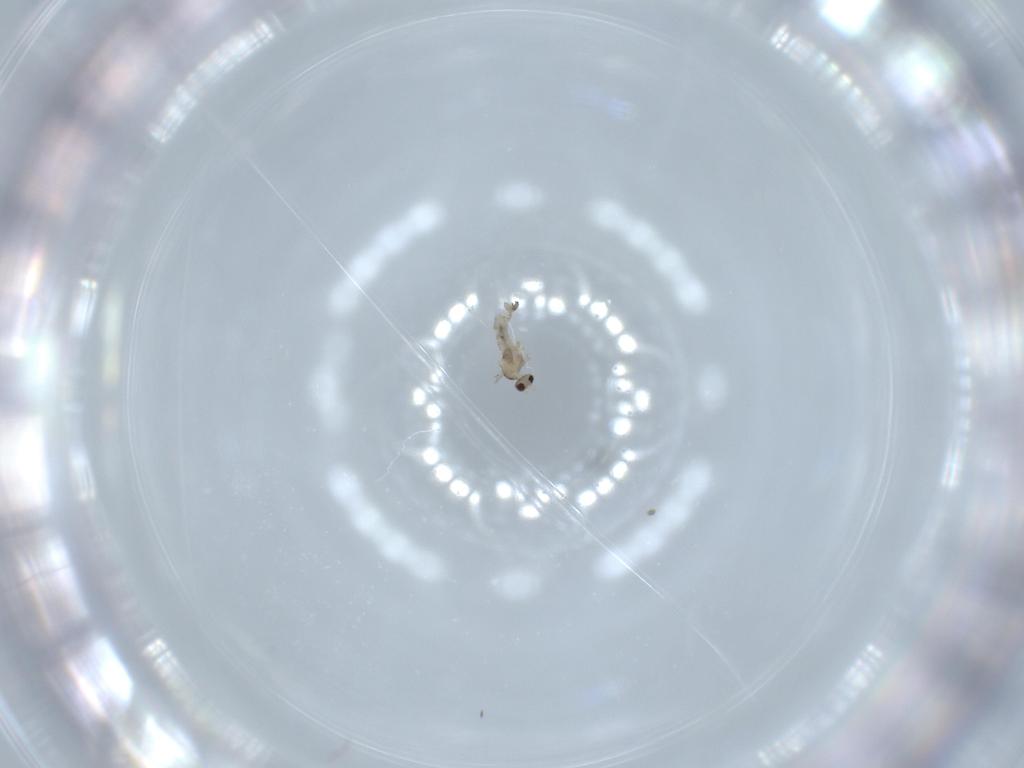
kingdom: Animalia
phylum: Arthropoda
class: Insecta
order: Diptera
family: Cecidomyiidae
